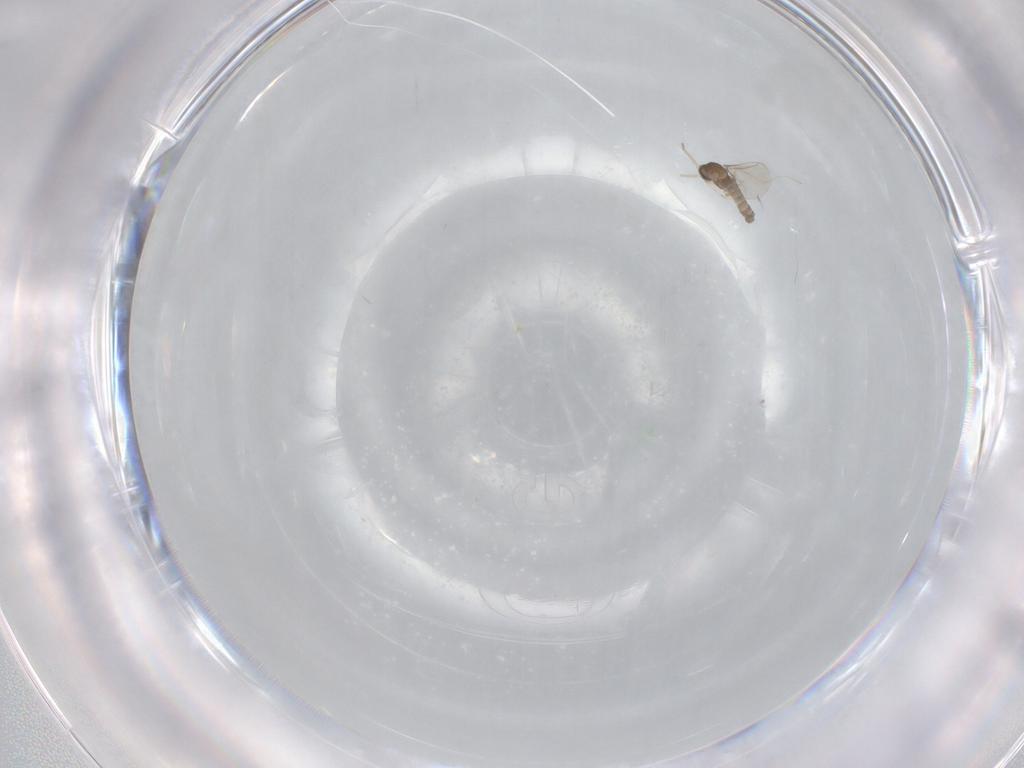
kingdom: Animalia
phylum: Arthropoda
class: Insecta
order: Diptera
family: Cecidomyiidae
